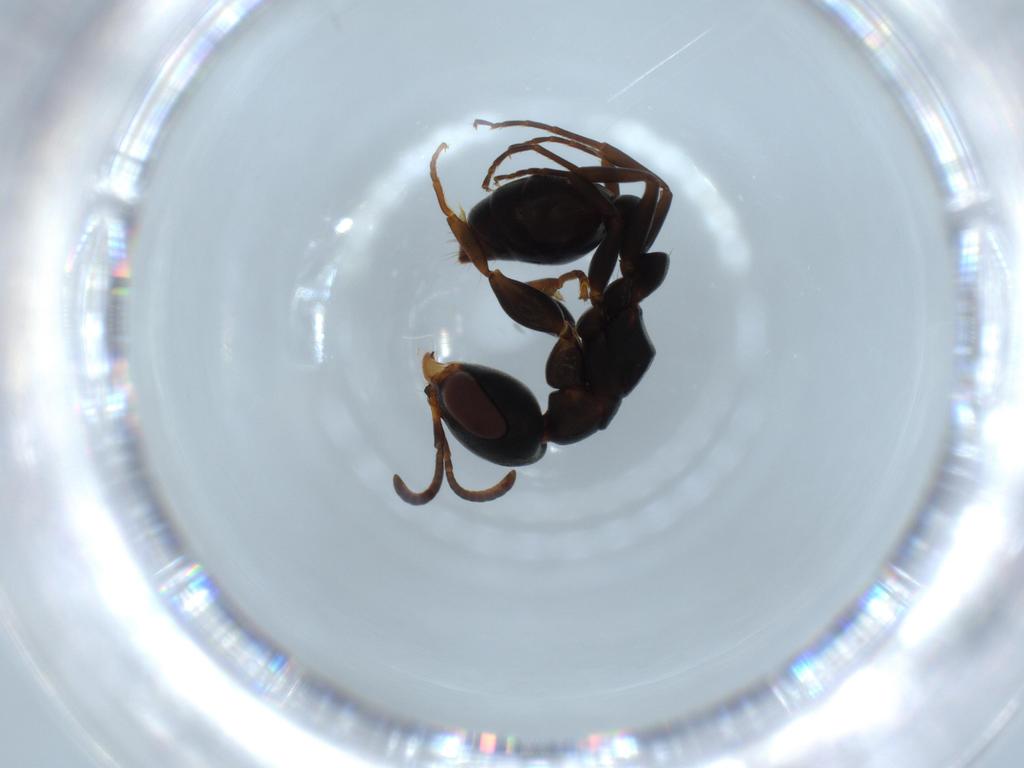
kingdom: Animalia
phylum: Arthropoda
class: Insecta
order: Hymenoptera
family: Formicidae
